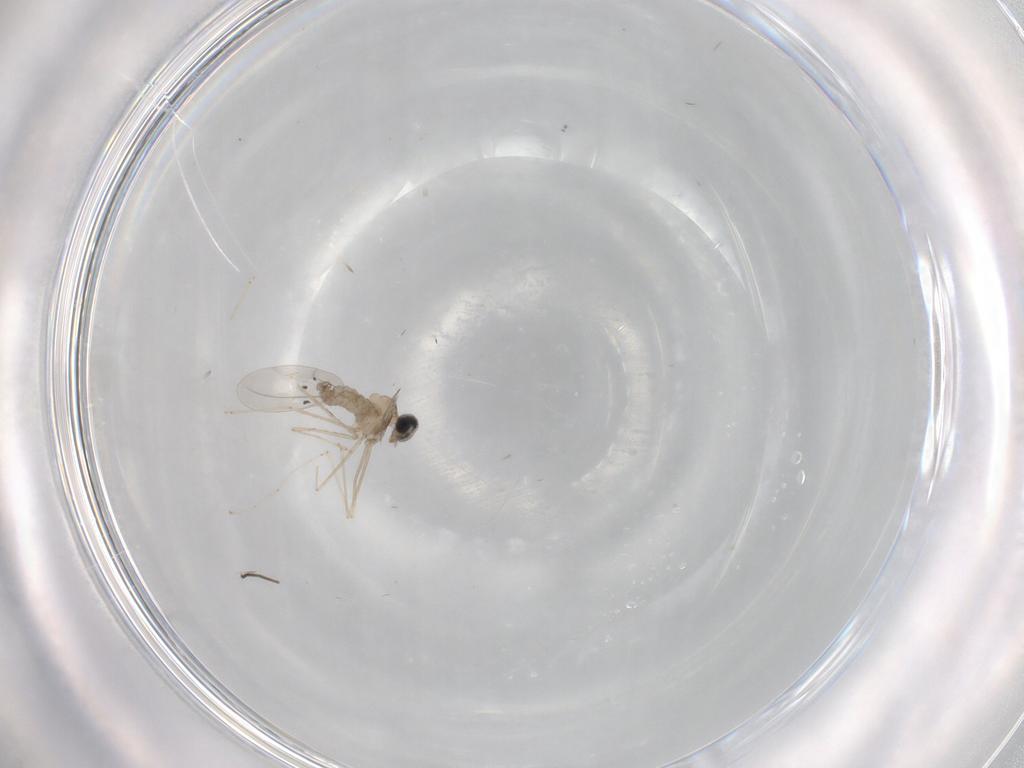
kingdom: Animalia
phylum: Arthropoda
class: Insecta
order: Diptera
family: Cecidomyiidae
